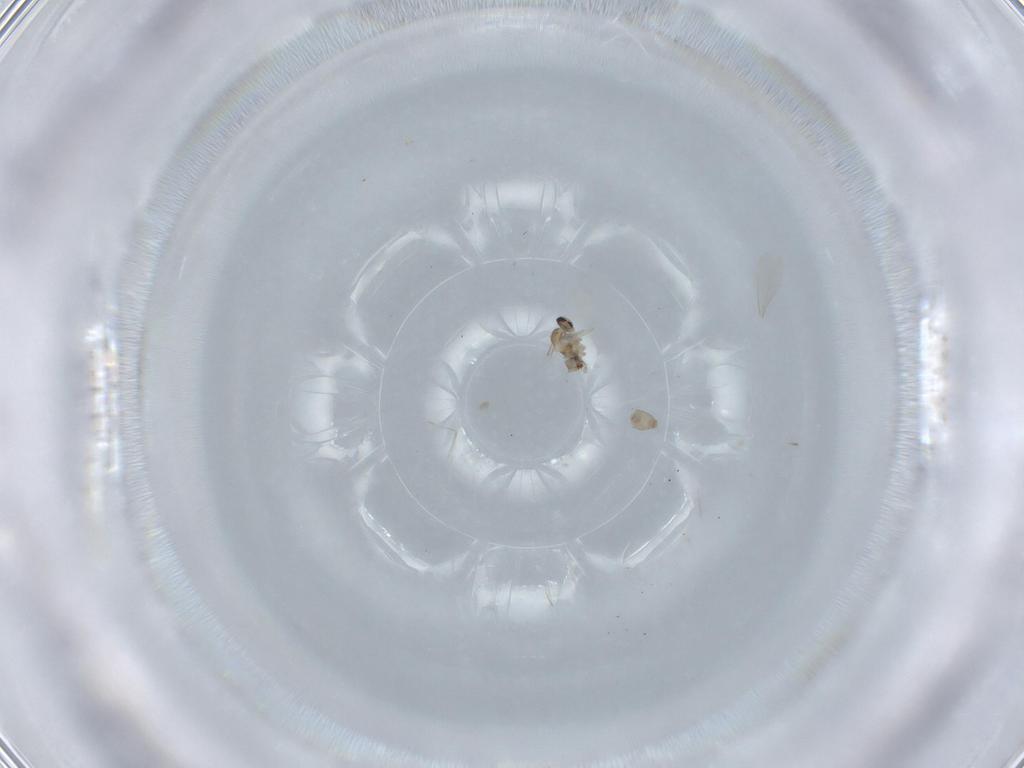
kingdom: Animalia
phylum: Arthropoda
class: Insecta
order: Diptera
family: Cecidomyiidae
